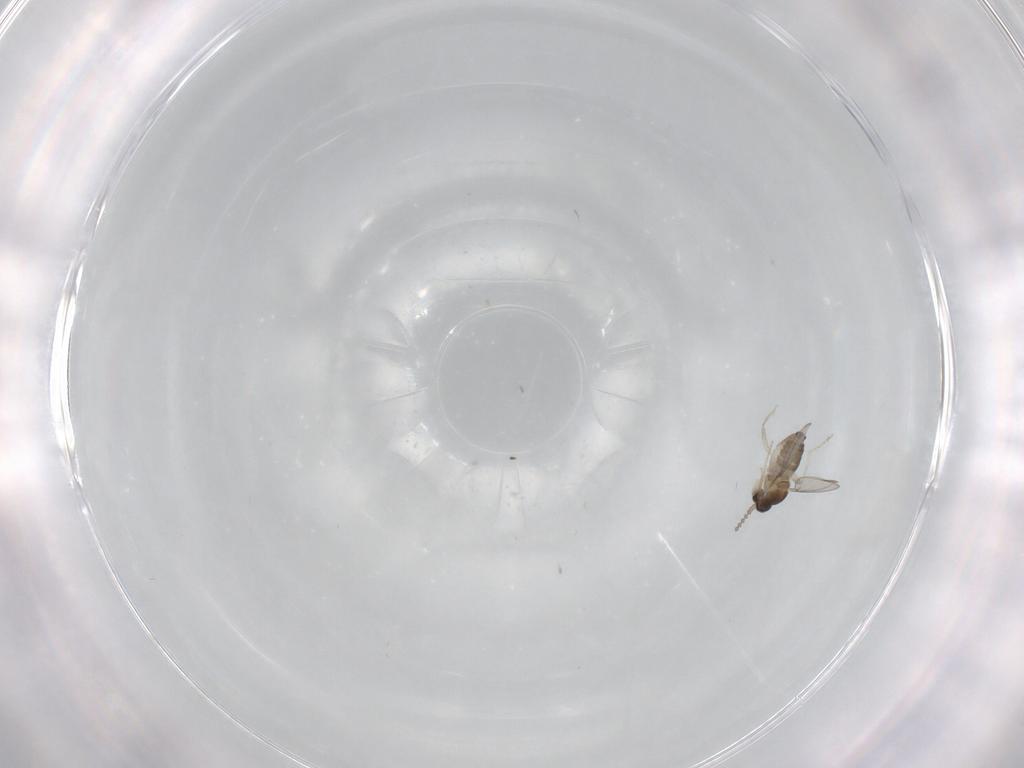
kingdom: Animalia
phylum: Arthropoda
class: Insecta
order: Diptera
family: Cecidomyiidae
